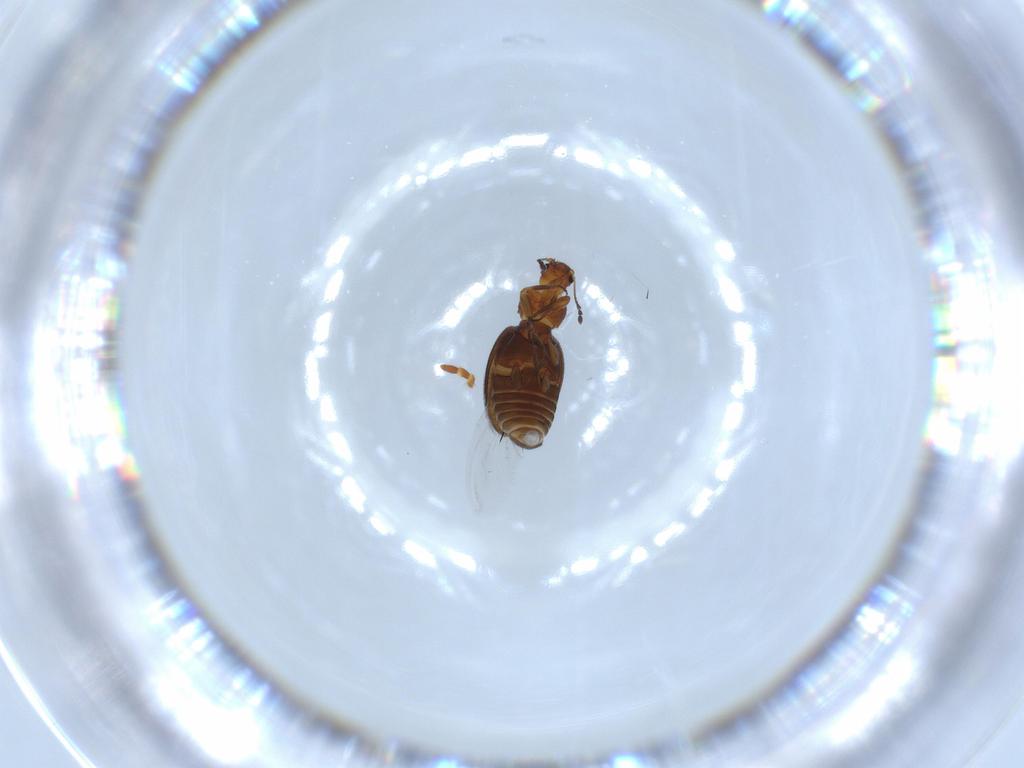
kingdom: Animalia
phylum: Arthropoda
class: Insecta
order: Coleoptera
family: Latridiidae
